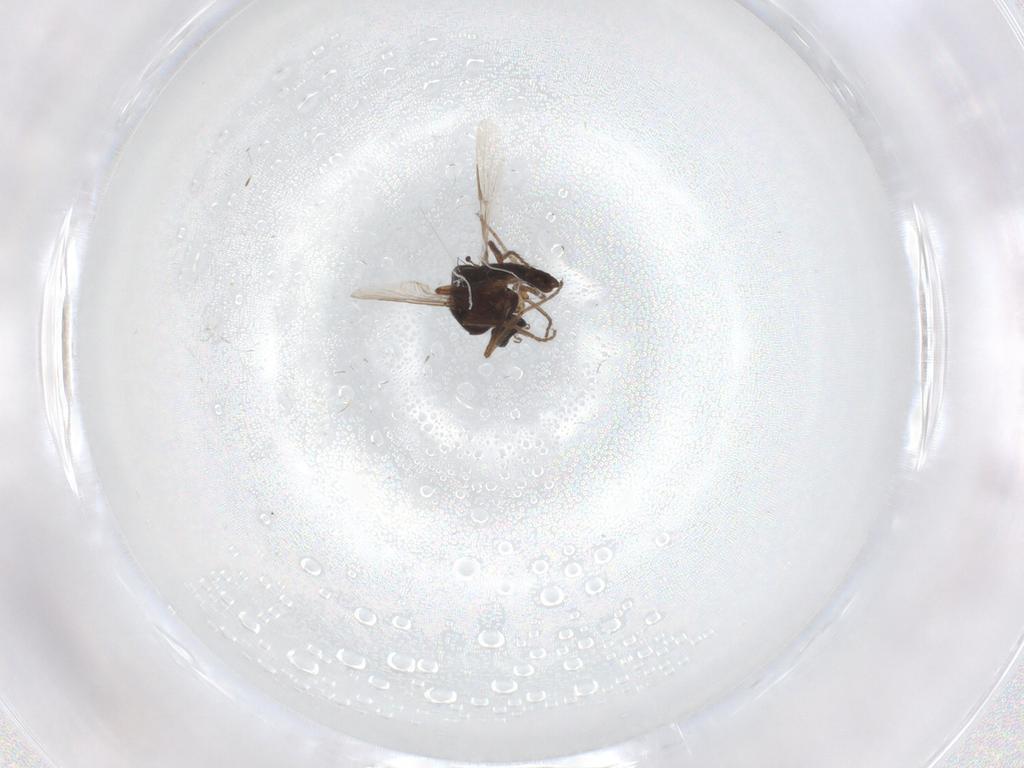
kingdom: Animalia
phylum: Arthropoda
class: Insecta
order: Diptera
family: Ceratopogonidae
